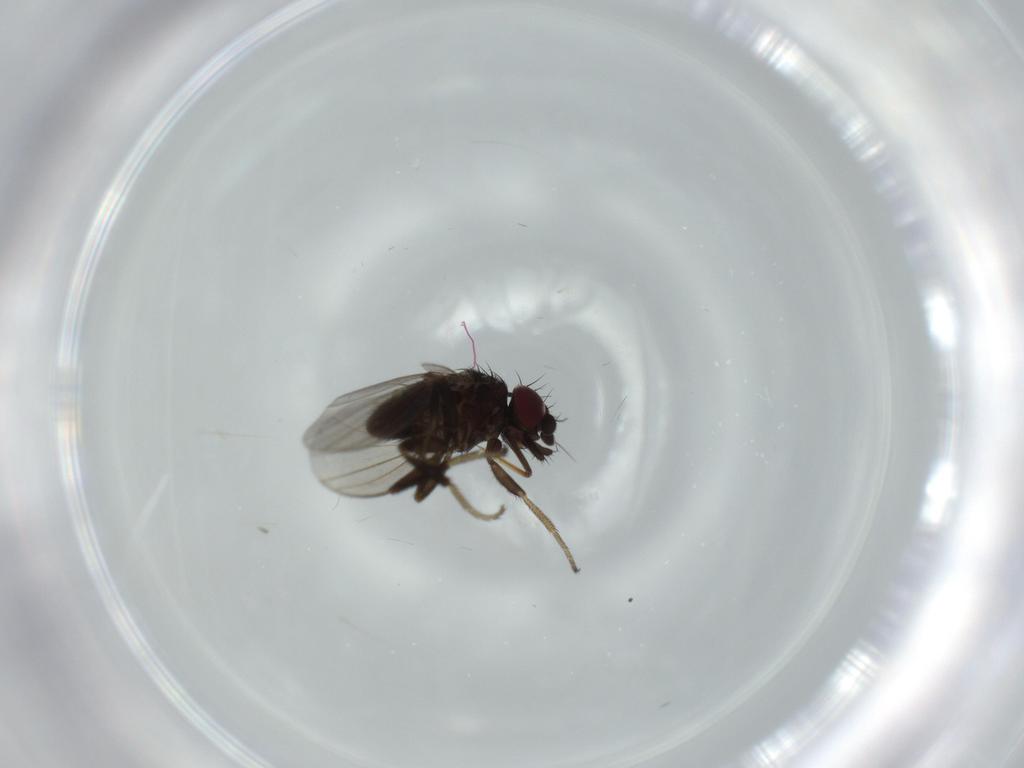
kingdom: Animalia
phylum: Arthropoda
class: Insecta
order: Diptera
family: Milichiidae
